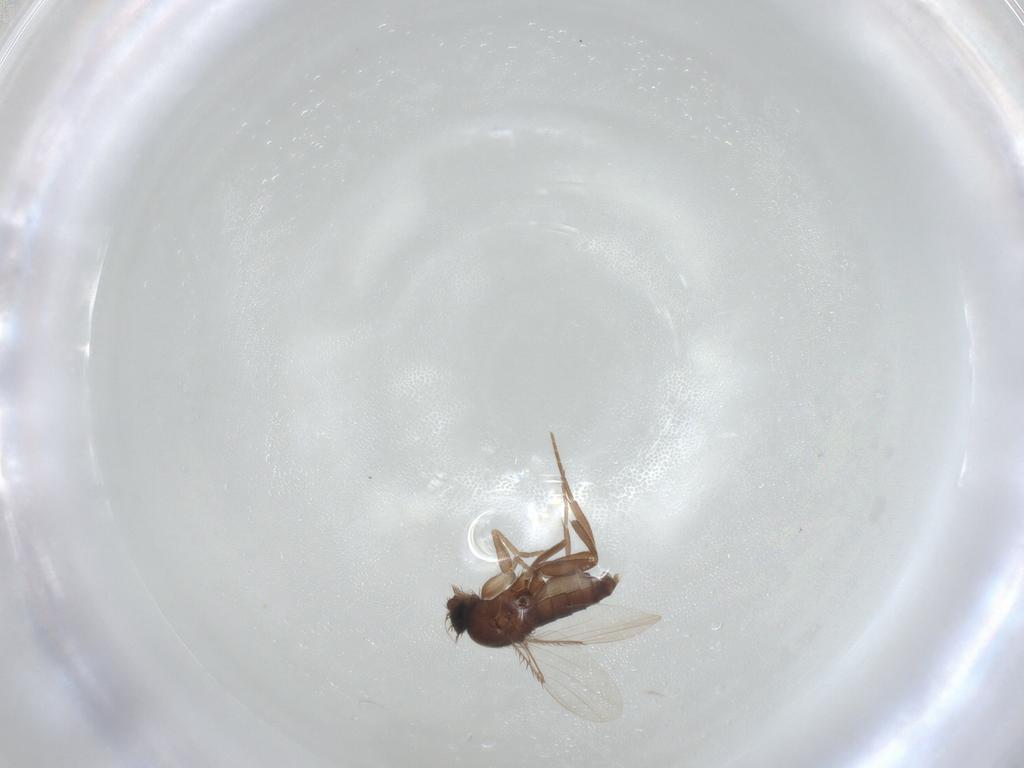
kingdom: Animalia
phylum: Arthropoda
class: Insecta
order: Diptera
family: Phoridae
